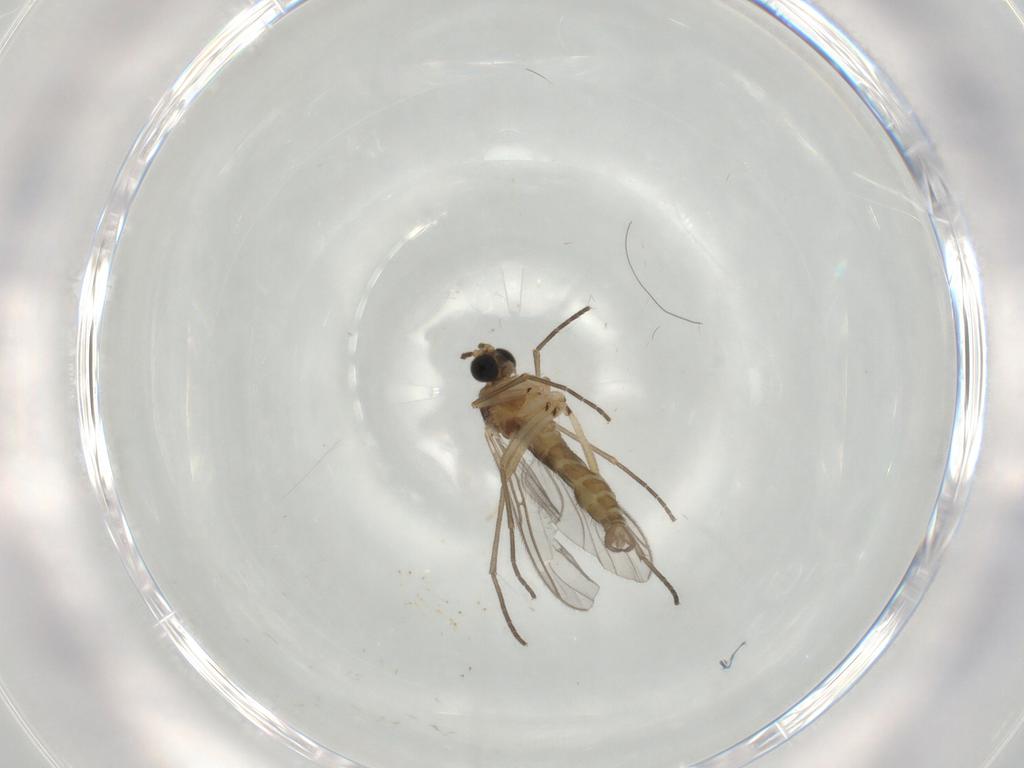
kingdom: Animalia
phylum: Arthropoda
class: Insecta
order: Diptera
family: Sciaridae
